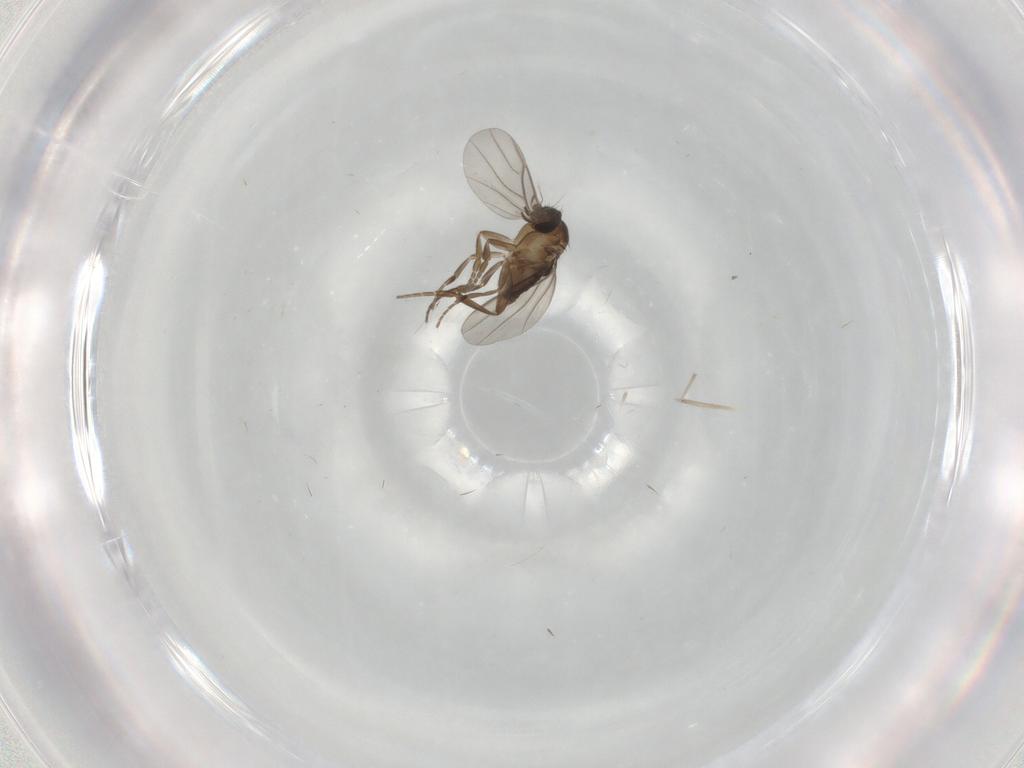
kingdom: Animalia
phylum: Arthropoda
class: Insecta
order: Diptera
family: Phoridae
